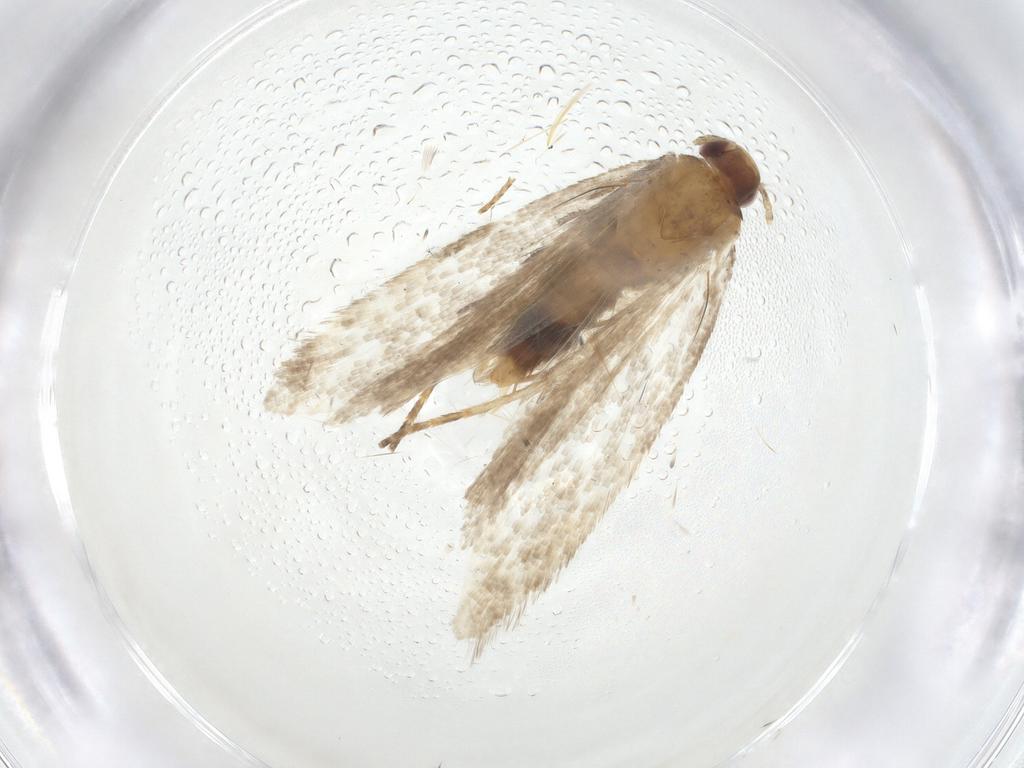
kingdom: Animalia
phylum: Arthropoda
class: Insecta
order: Lepidoptera
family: Gelechiidae
